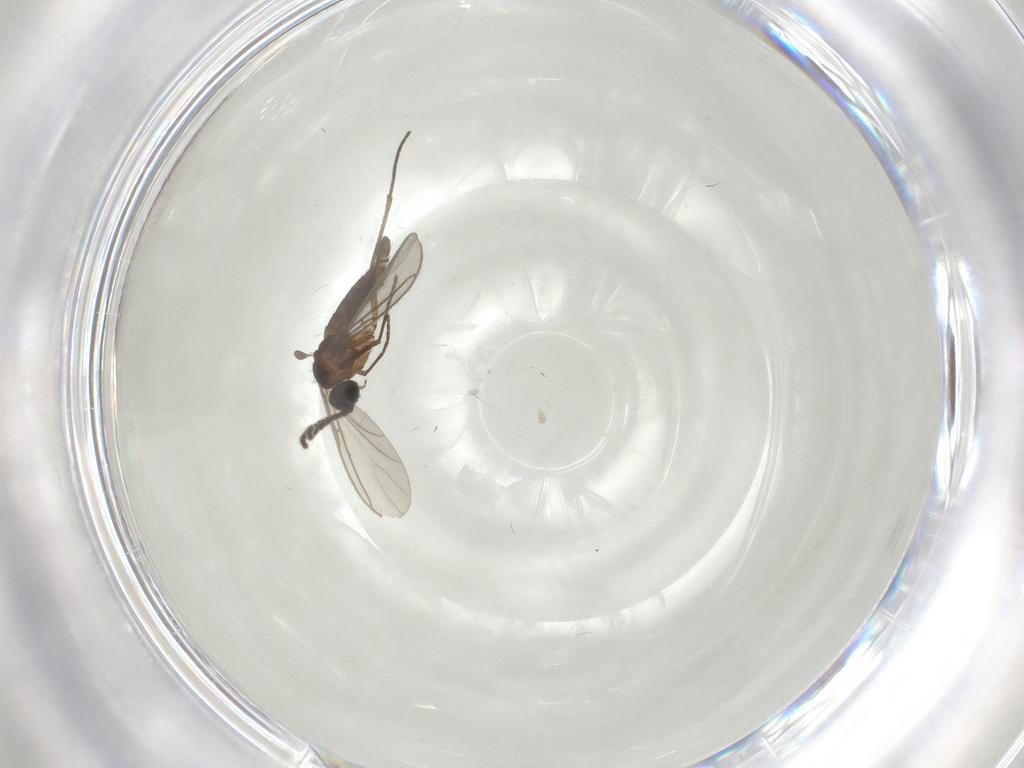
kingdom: Animalia
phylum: Arthropoda
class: Insecta
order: Diptera
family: Sciaridae
